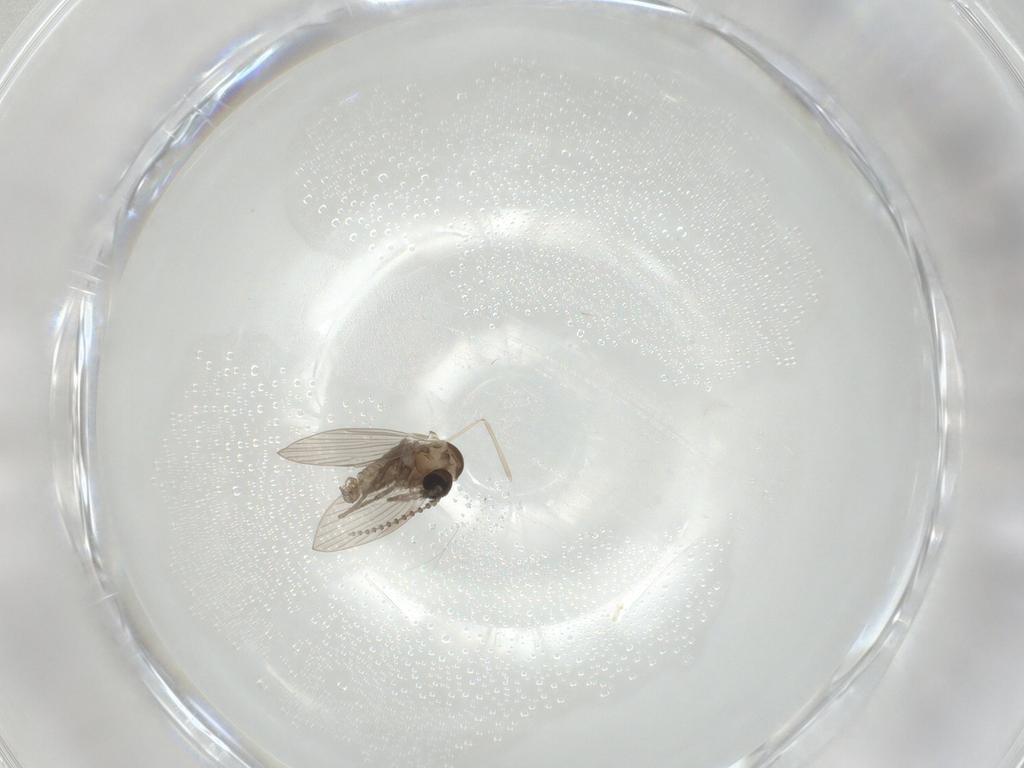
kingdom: Animalia
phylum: Arthropoda
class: Insecta
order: Diptera
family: Psychodidae
